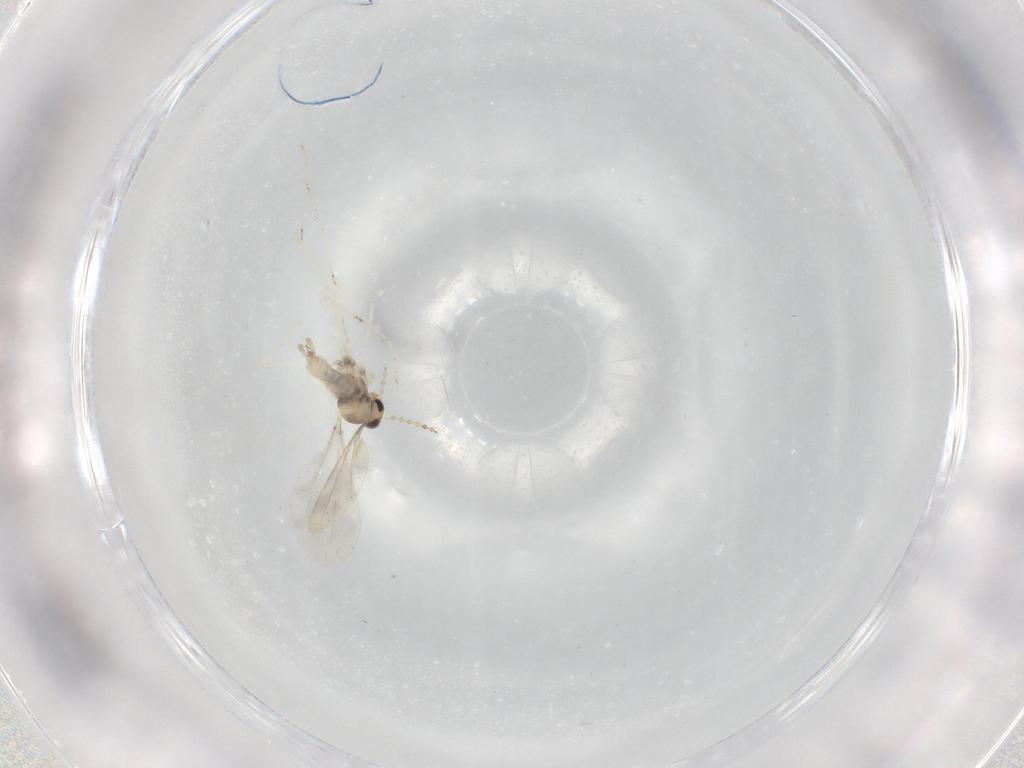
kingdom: Animalia
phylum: Arthropoda
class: Insecta
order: Diptera
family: Cecidomyiidae
